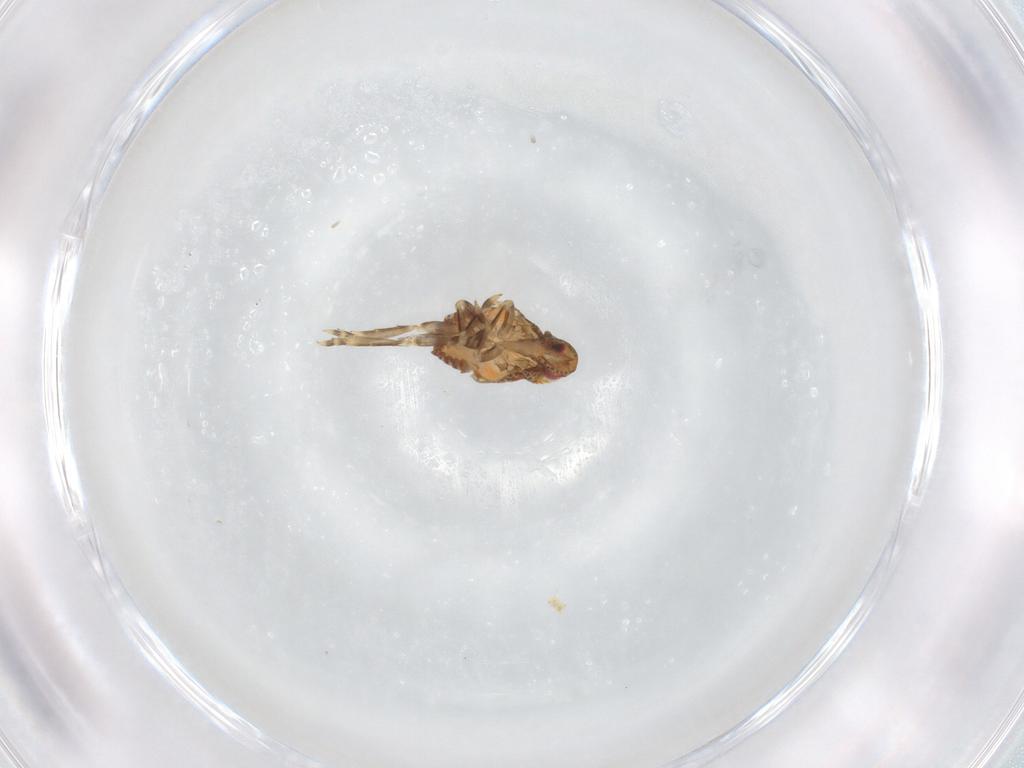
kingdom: Animalia
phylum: Arthropoda
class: Insecta
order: Hemiptera
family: Flatidae
